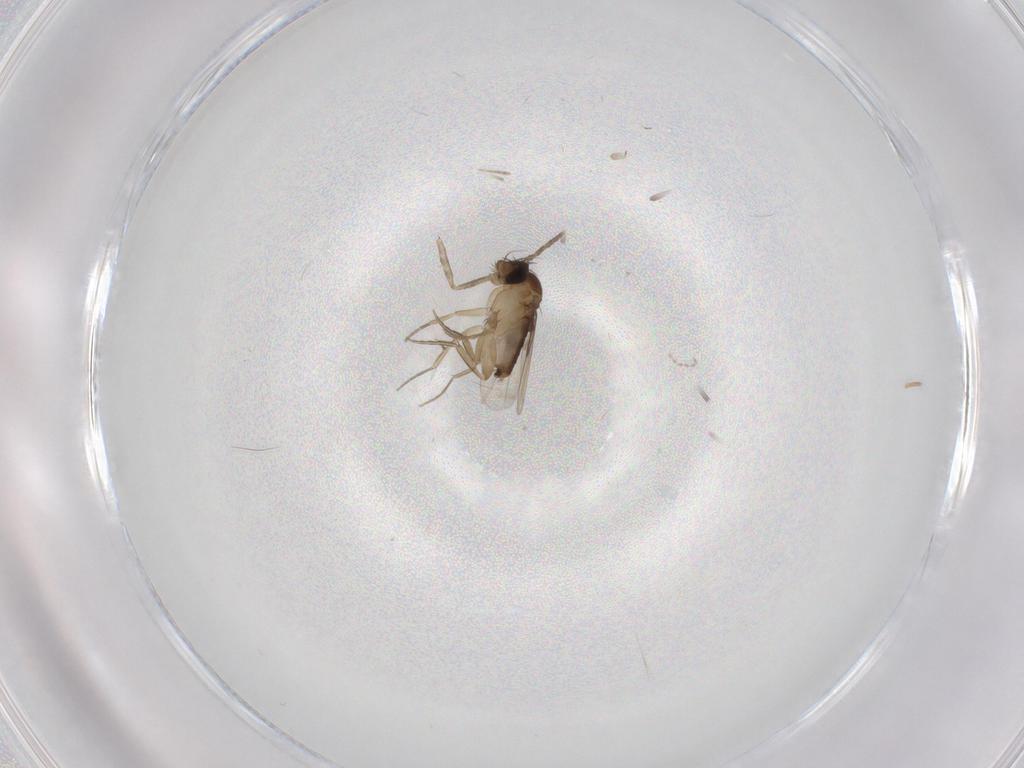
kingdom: Animalia
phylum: Arthropoda
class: Insecta
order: Diptera
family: Phoridae
